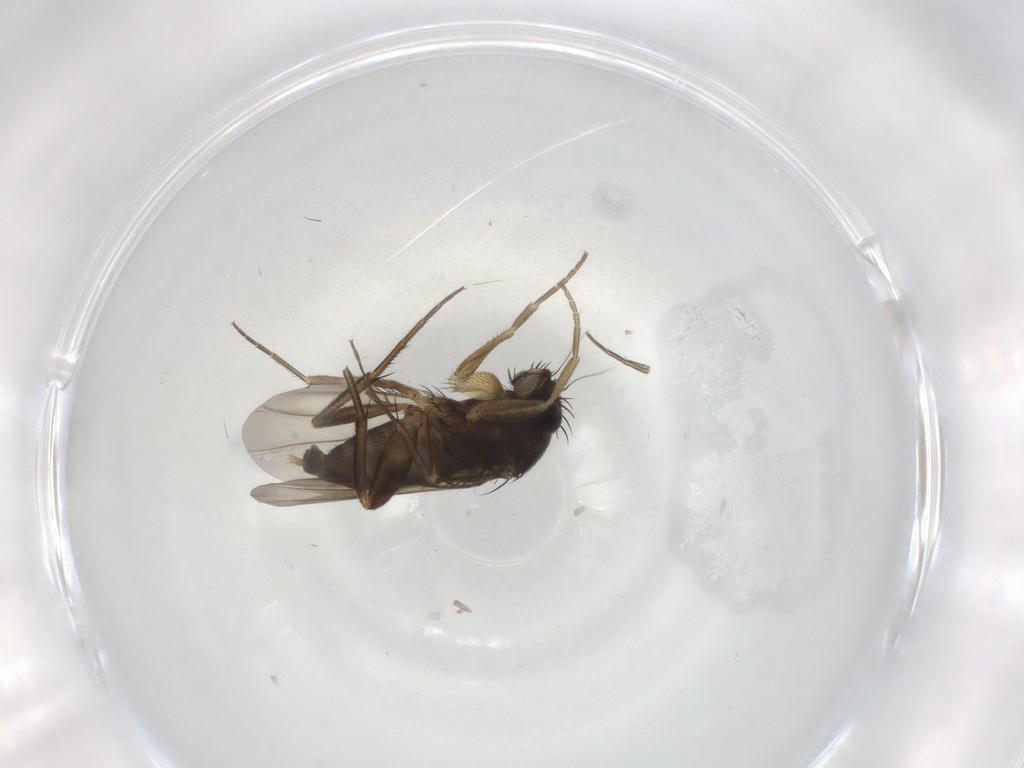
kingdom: Animalia
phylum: Arthropoda
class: Insecta
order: Diptera
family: Phoridae
